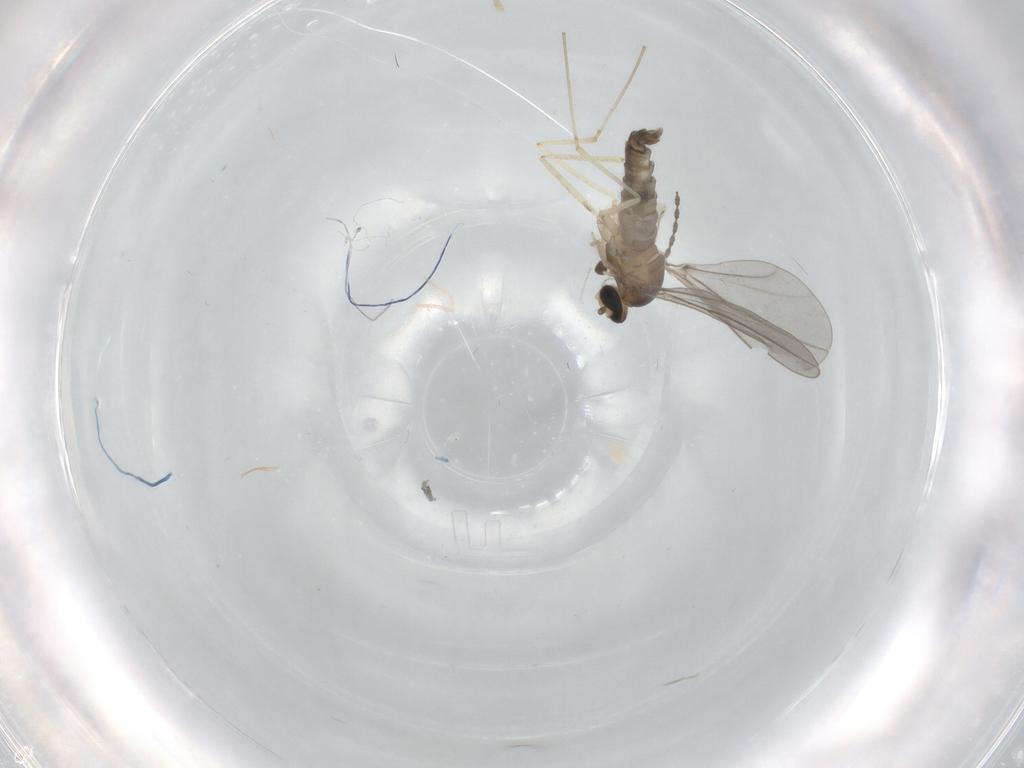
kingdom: Animalia
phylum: Arthropoda
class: Insecta
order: Diptera
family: Cecidomyiidae
